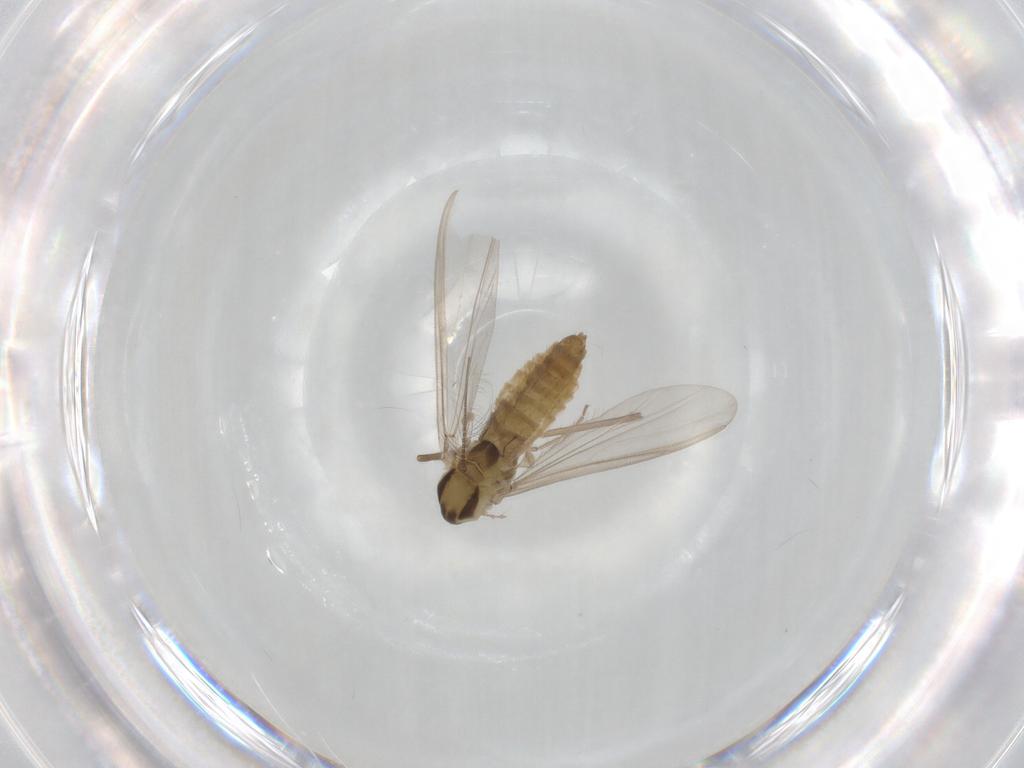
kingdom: Animalia
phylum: Arthropoda
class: Insecta
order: Diptera
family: Chironomidae
